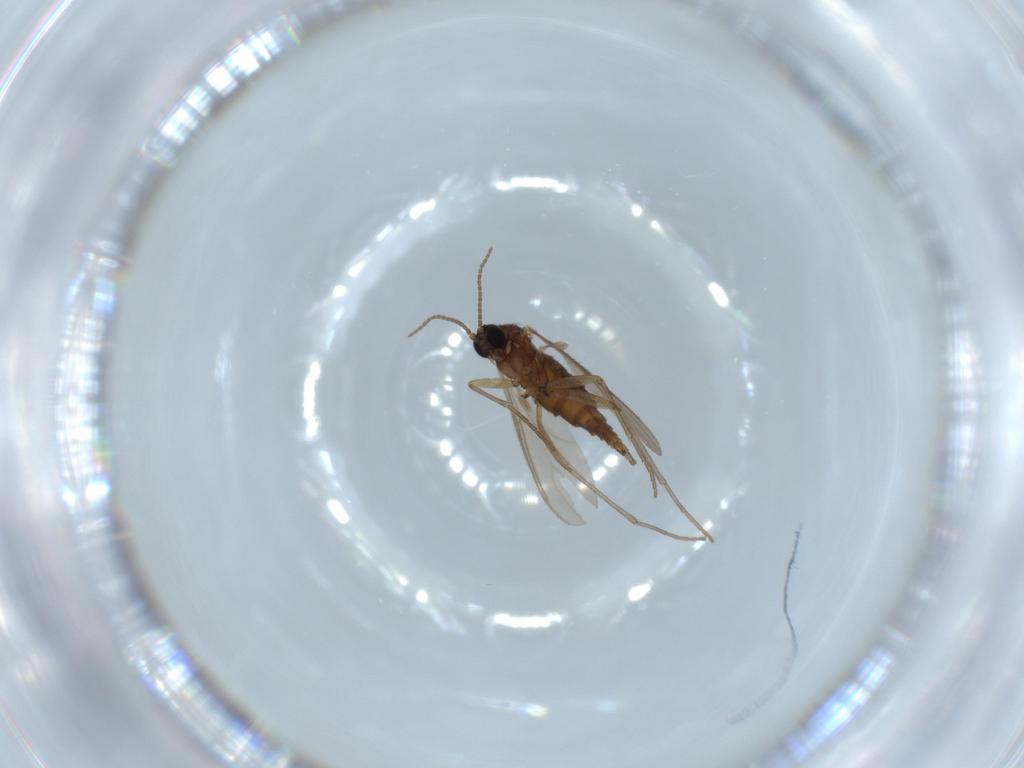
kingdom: Animalia
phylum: Arthropoda
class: Insecta
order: Diptera
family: Sciaridae
